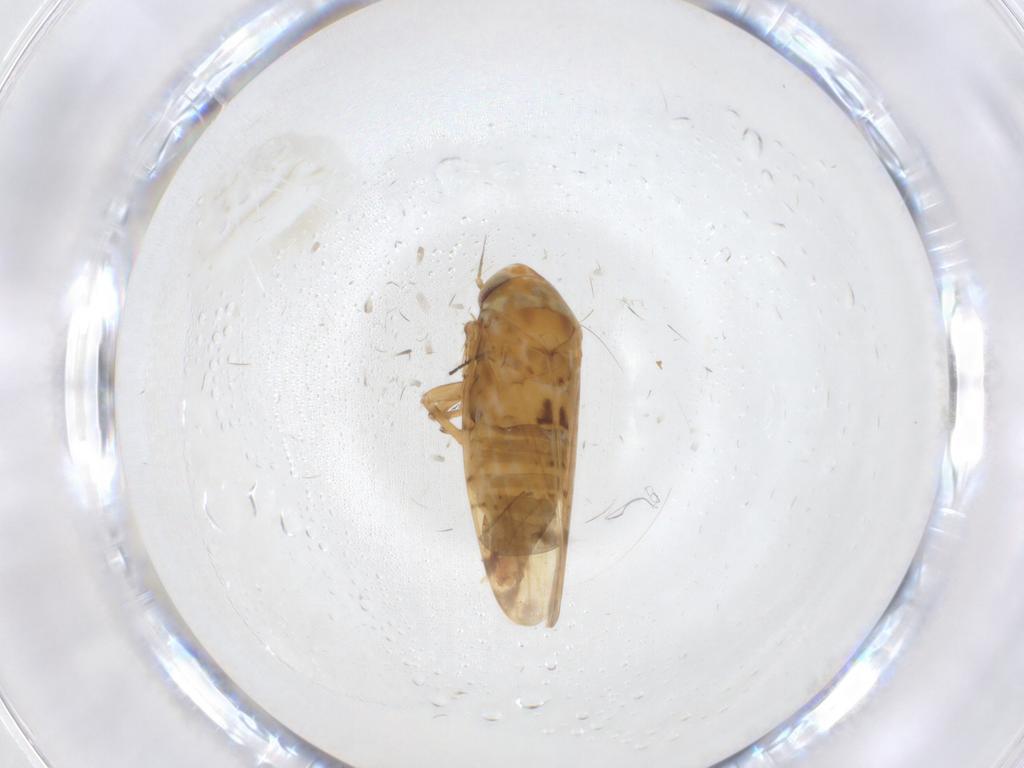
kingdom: Animalia
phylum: Arthropoda
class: Insecta
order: Hemiptera
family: Cicadellidae
